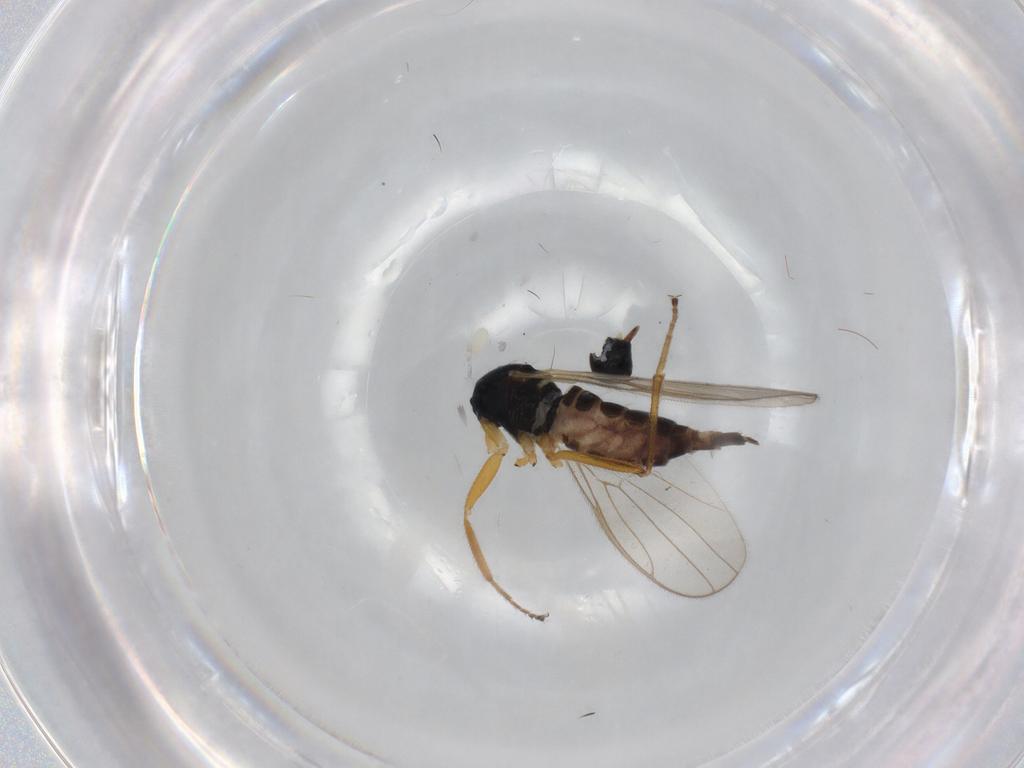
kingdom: Animalia
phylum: Arthropoda
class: Insecta
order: Diptera
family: Hybotidae
